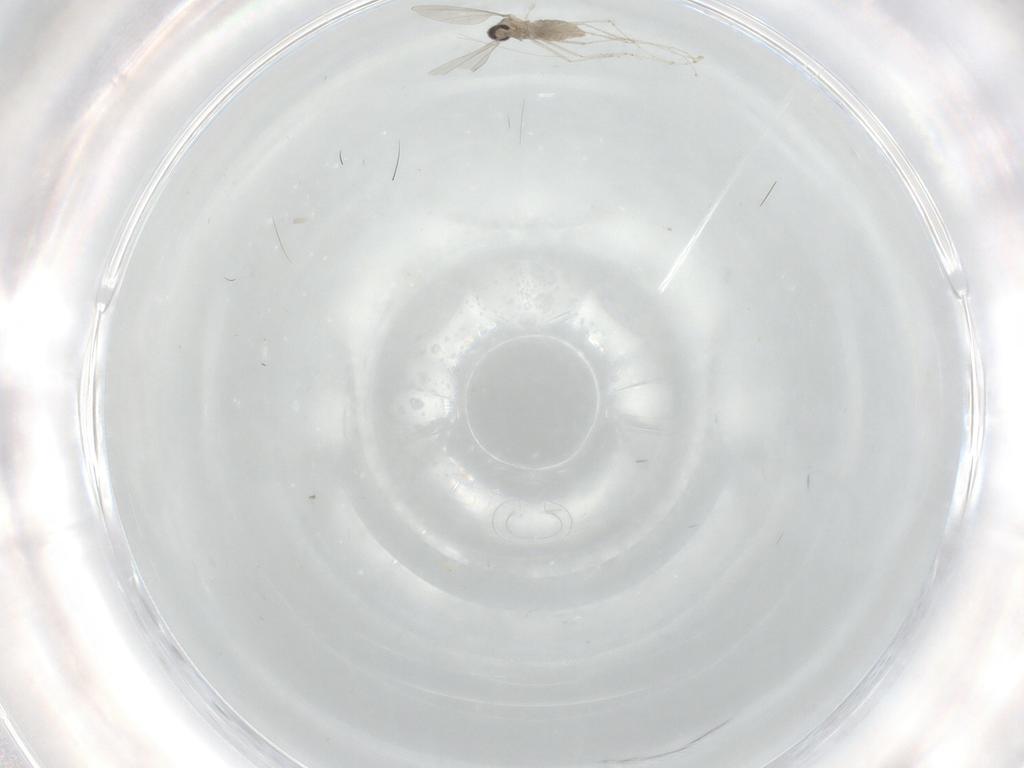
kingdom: Animalia
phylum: Arthropoda
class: Insecta
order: Diptera
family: Cecidomyiidae
